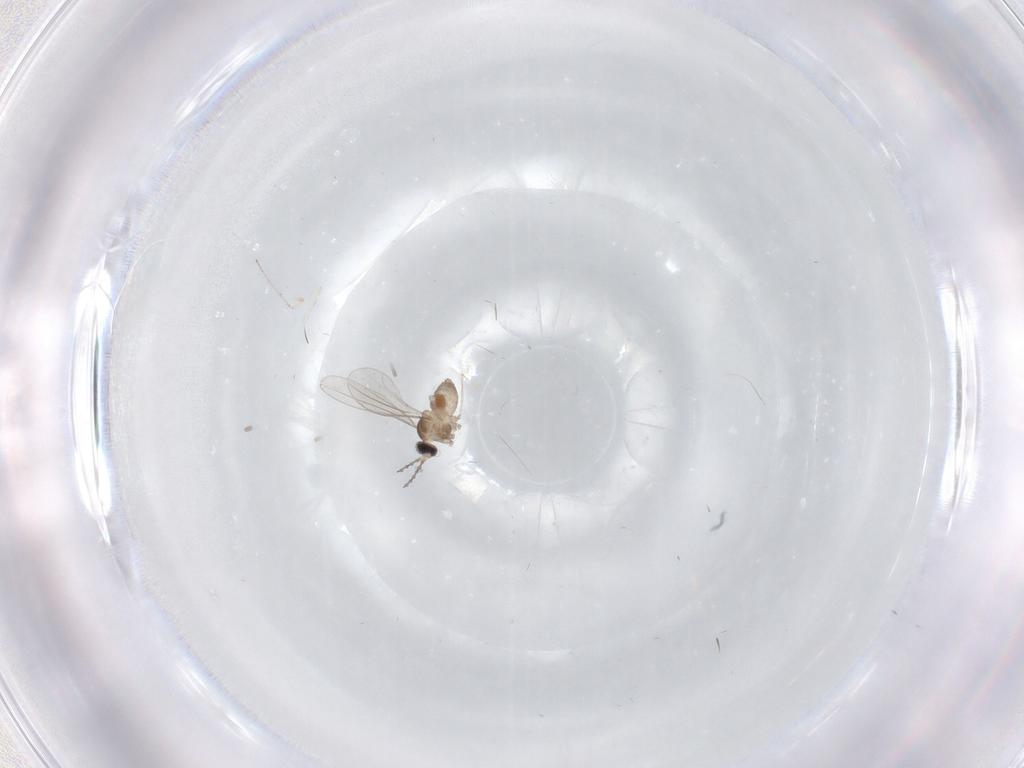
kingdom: Animalia
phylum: Arthropoda
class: Insecta
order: Diptera
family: Cecidomyiidae
